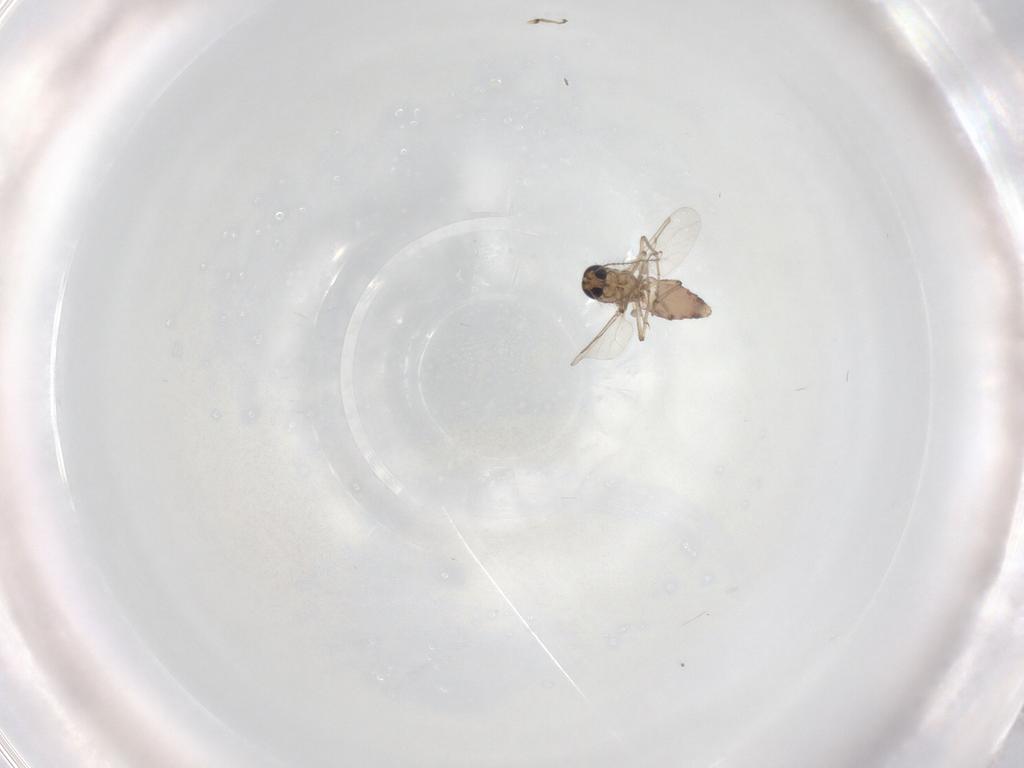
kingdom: Animalia
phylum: Arthropoda
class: Insecta
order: Diptera
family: Ceratopogonidae
